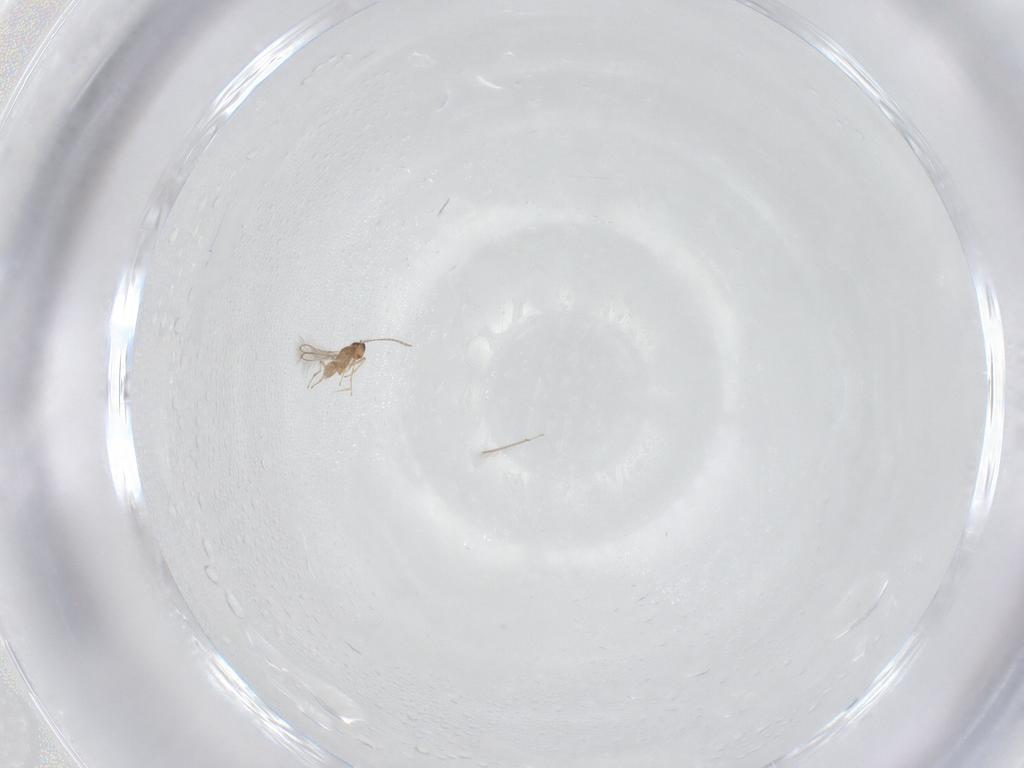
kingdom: Animalia
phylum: Arthropoda
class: Insecta
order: Hymenoptera
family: Mymaridae
